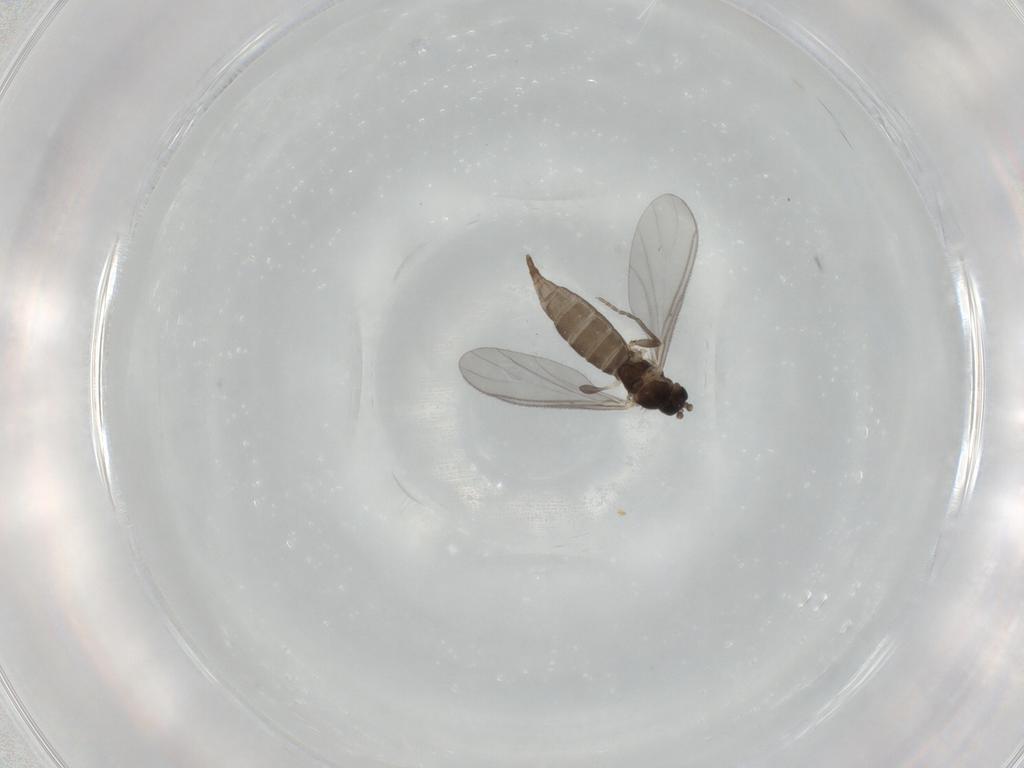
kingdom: Animalia
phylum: Arthropoda
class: Insecta
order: Diptera
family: Sciaridae
